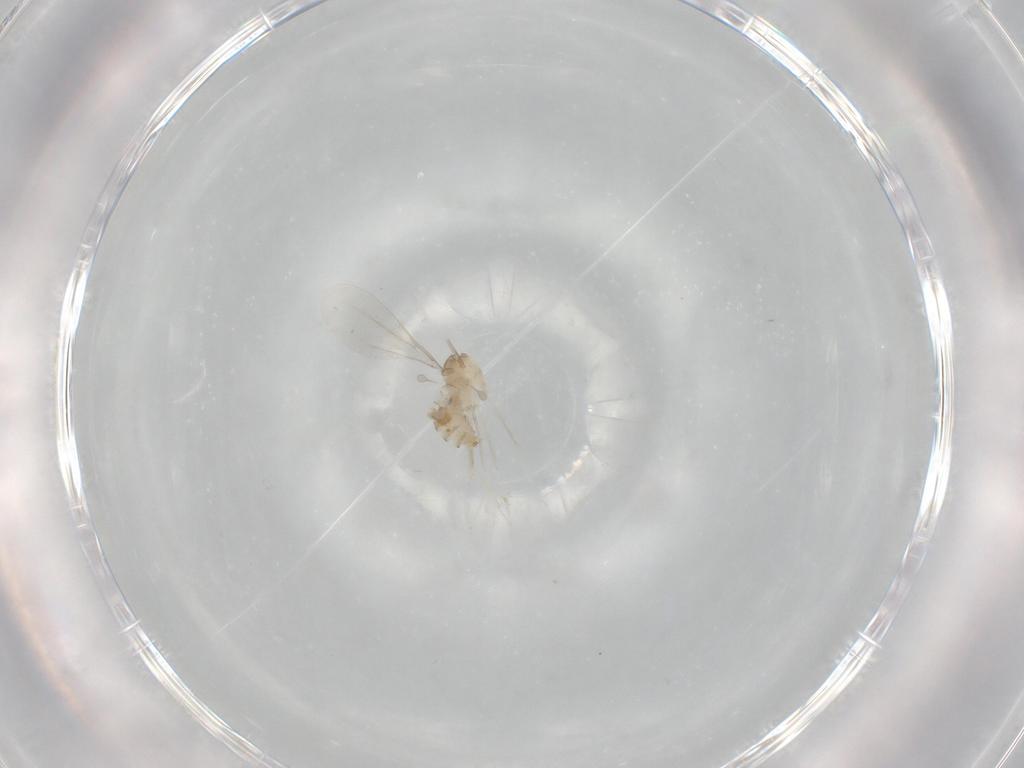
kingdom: Animalia
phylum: Arthropoda
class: Insecta
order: Diptera
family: Cecidomyiidae
